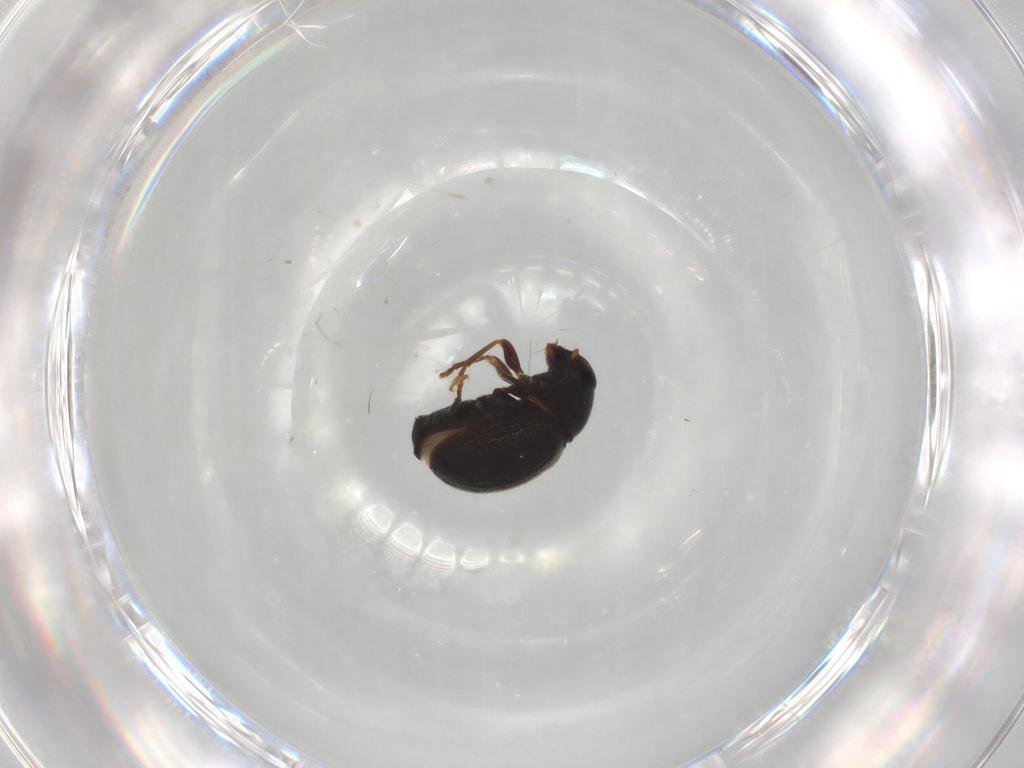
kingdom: Animalia
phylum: Arthropoda
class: Insecta
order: Coleoptera
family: Anthribidae
